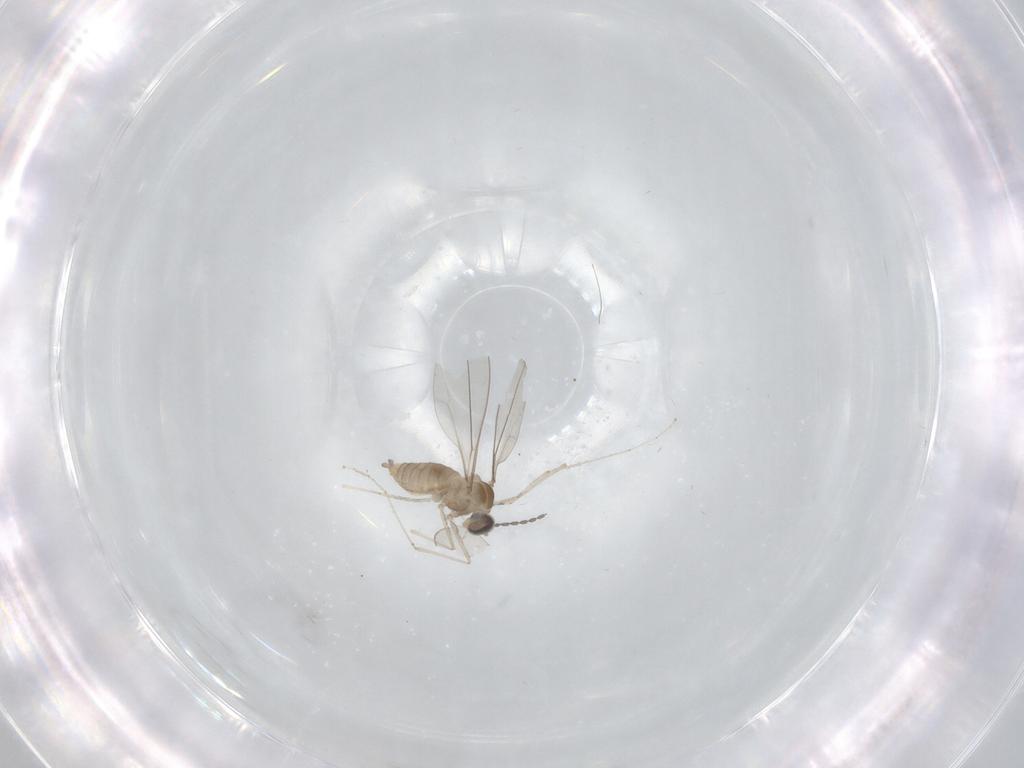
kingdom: Animalia
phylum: Arthropoda
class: Insecta
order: Diptera
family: Cecidomyiidae
